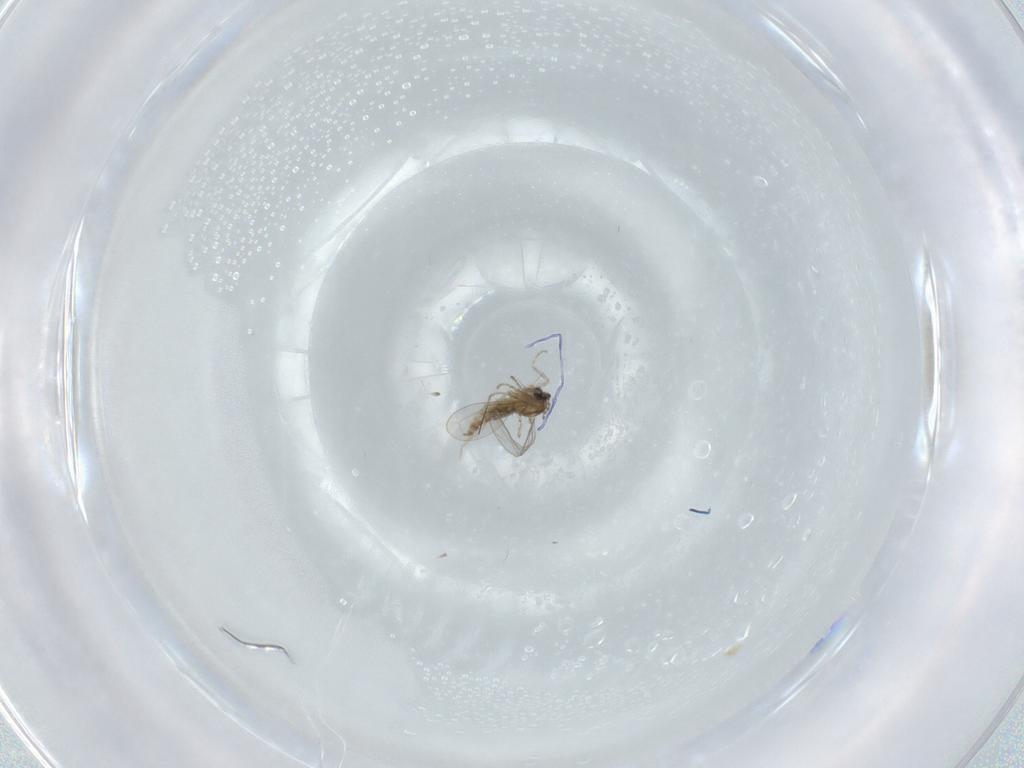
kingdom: Animalia
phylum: Arthropoda
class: Insecta
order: Diptera
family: Cecidomyiidae
